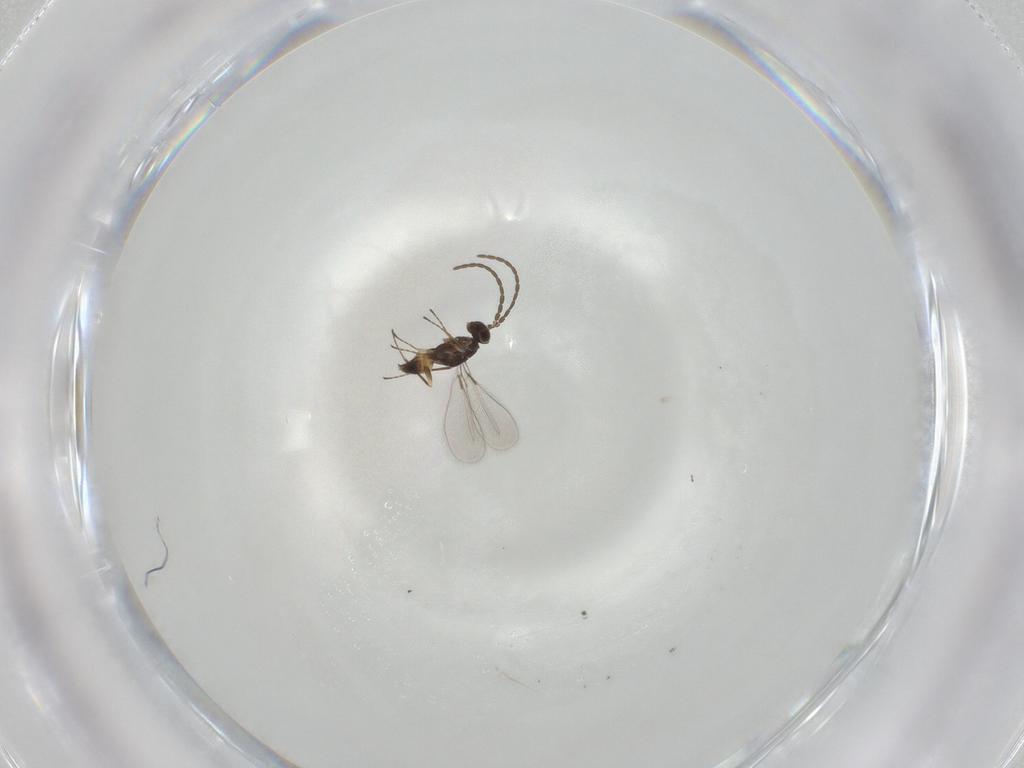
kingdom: Animalia
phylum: Arthropoda
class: Insecta
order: Hymenoptera
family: Mymaridae
